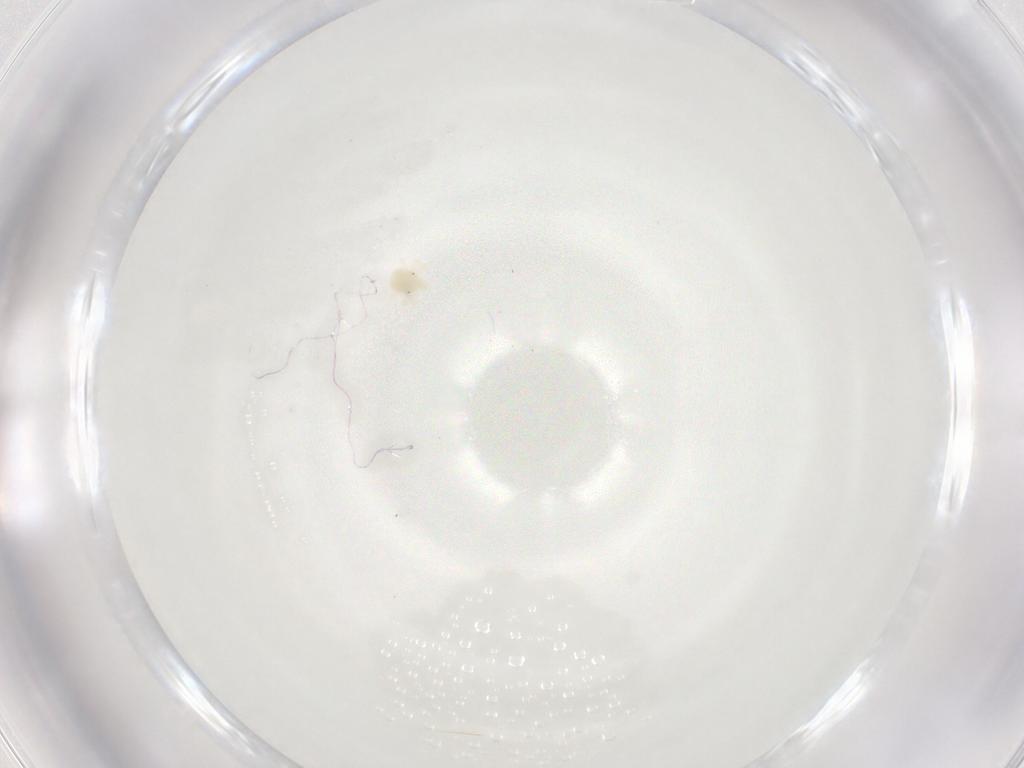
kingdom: Animalia
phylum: Arthropoda
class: Arachnida
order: Trombidiformes
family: Anystidae
